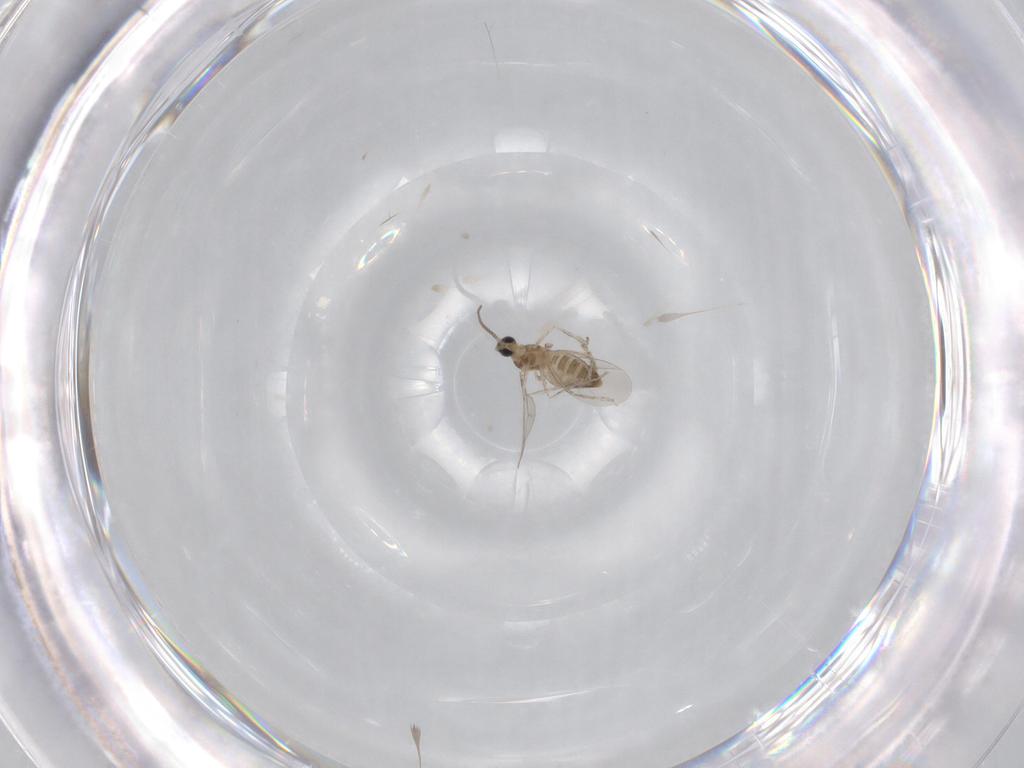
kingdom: Animalia
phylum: Arthropoda
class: Insecta
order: Diptera
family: Cecidomyiidae
